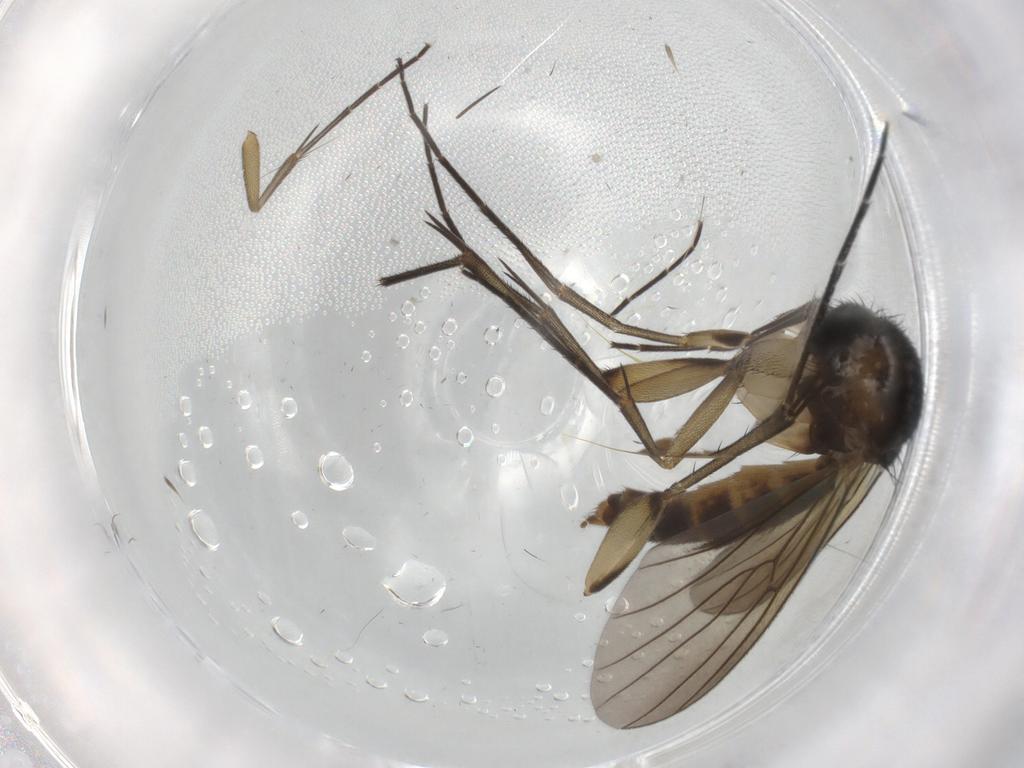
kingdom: Animalia
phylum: Arthropoda
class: Insecta
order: Diptera
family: Mycetophilidae
